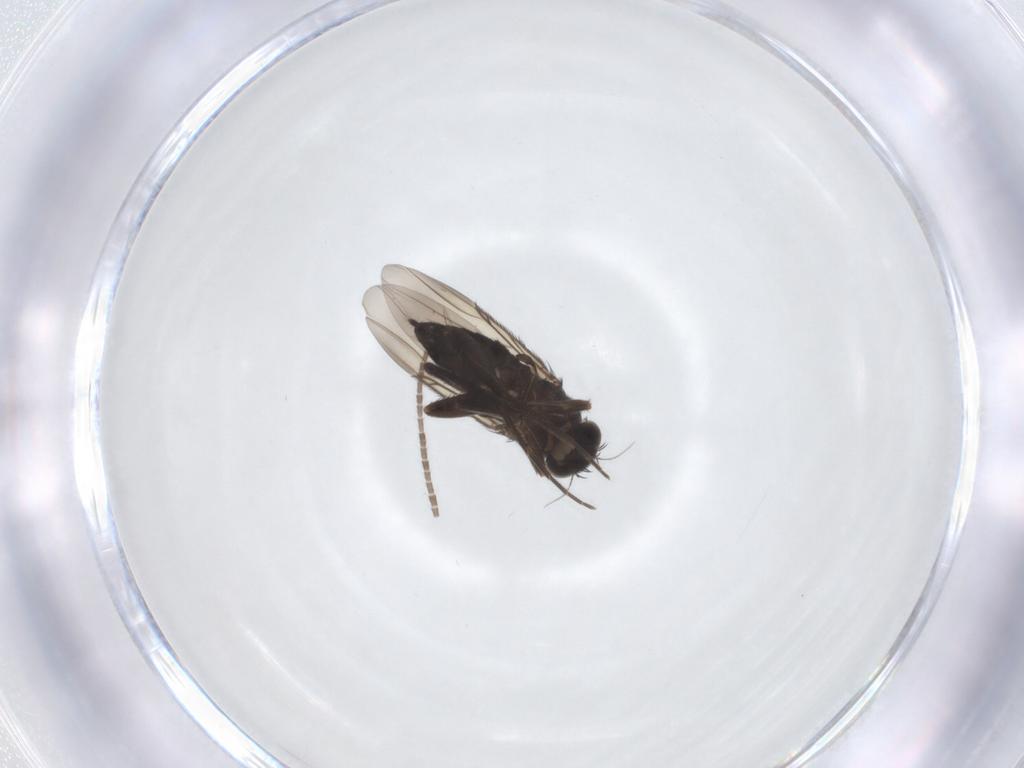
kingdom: Animalia
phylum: Arthropoda
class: Insecta
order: Diptera
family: Phoridae
